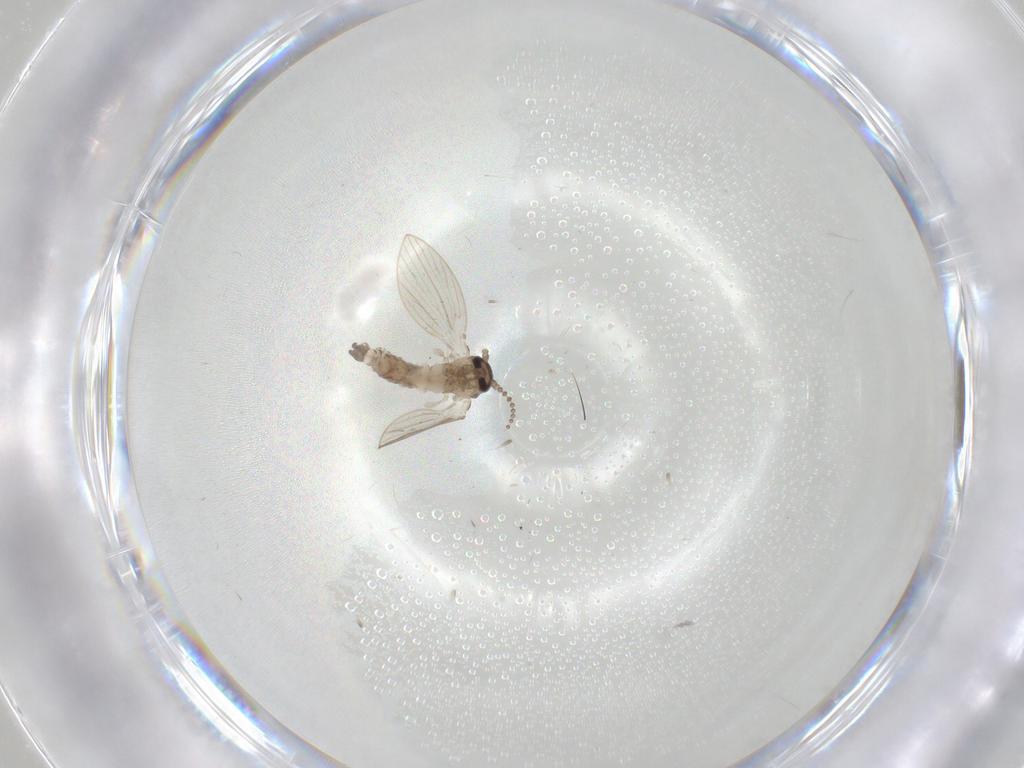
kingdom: Animalia
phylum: Arthropoda
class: Insecta
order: Diptera
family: Psychodidae
